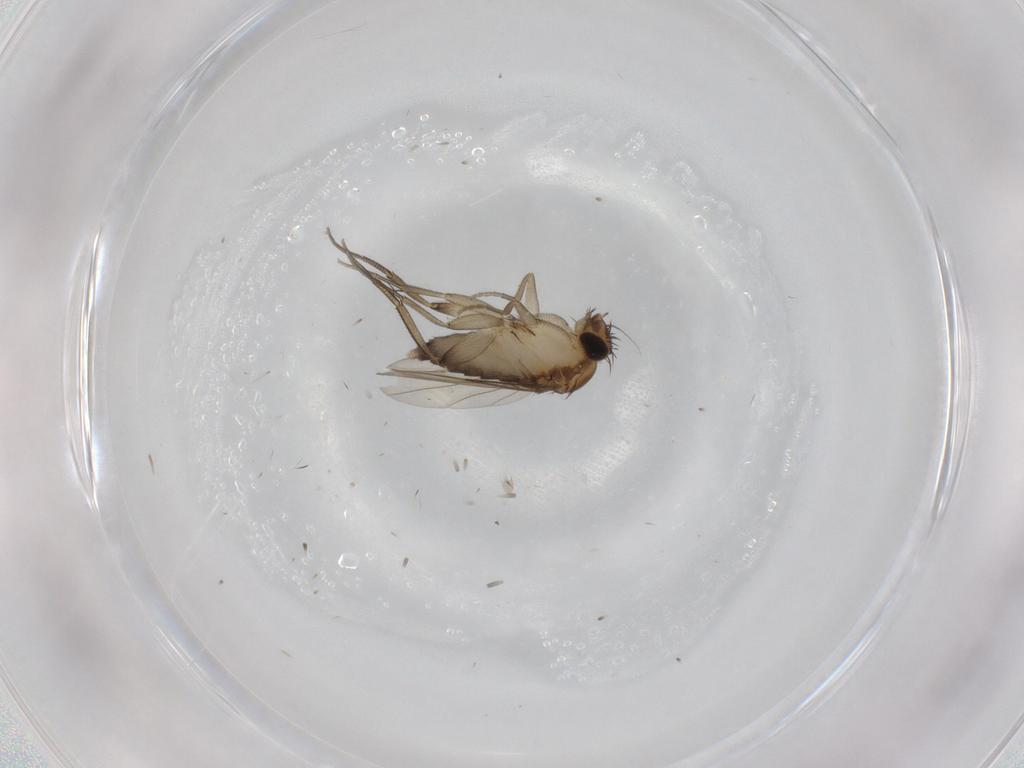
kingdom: Animalia
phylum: Arthropoda
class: Insecta
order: Diptera
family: Phoridae
